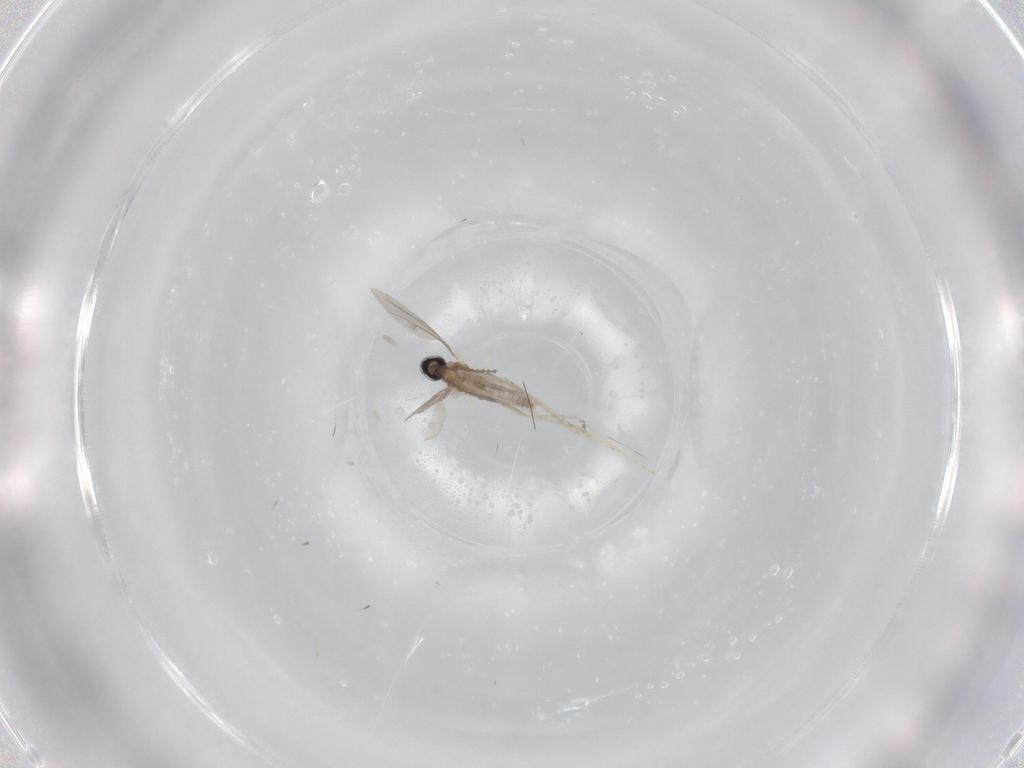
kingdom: Animalia
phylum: Arthropoda
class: Insecta
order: Diptera
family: Cecidomyiidae
